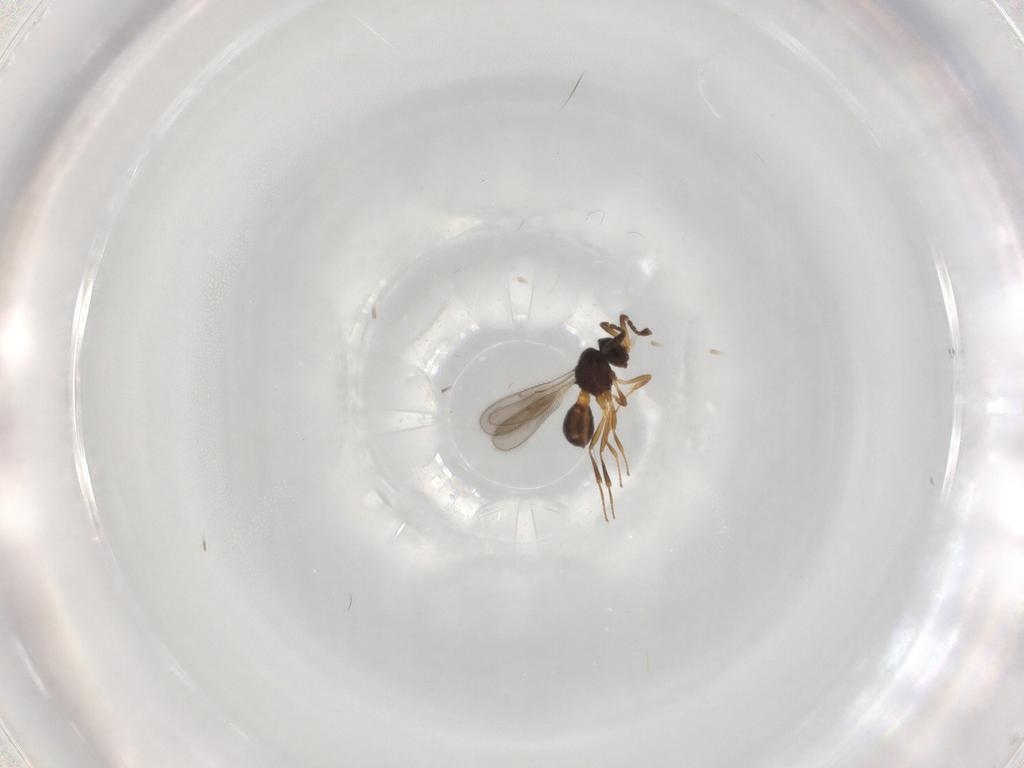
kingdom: Animalia
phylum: Arthropoda
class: Insecta
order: Hymenoptera
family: Scelionidae
